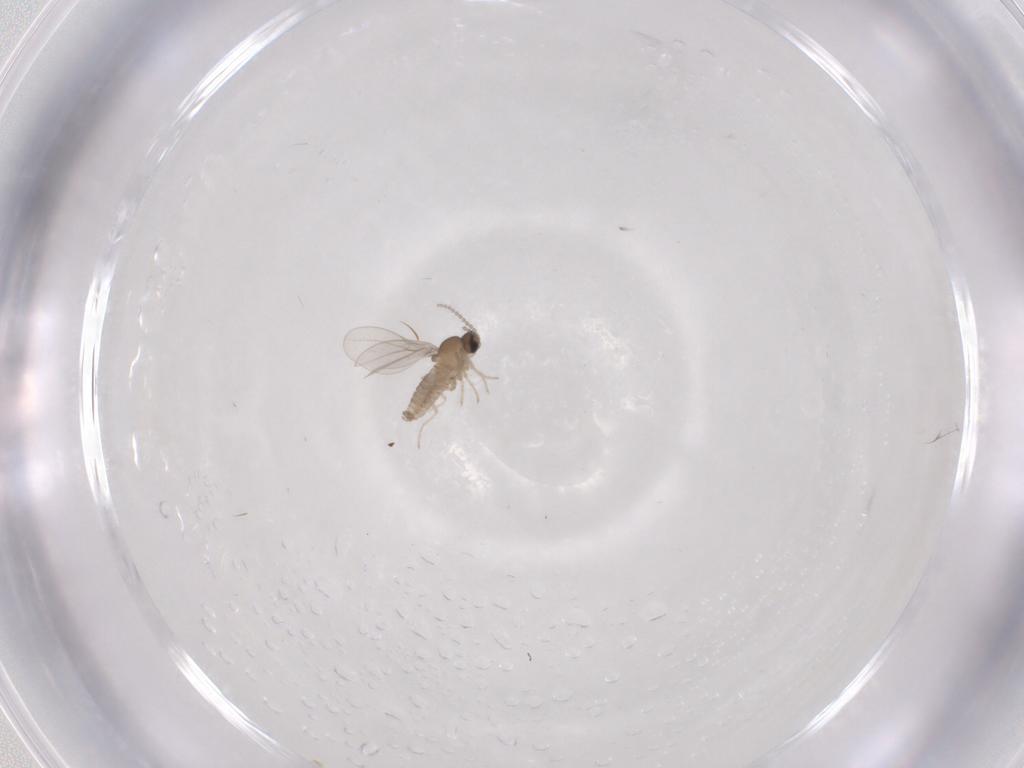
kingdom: Animalia
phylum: Arthropoda
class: Insecta
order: Diptera
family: Cecidomyiidae
